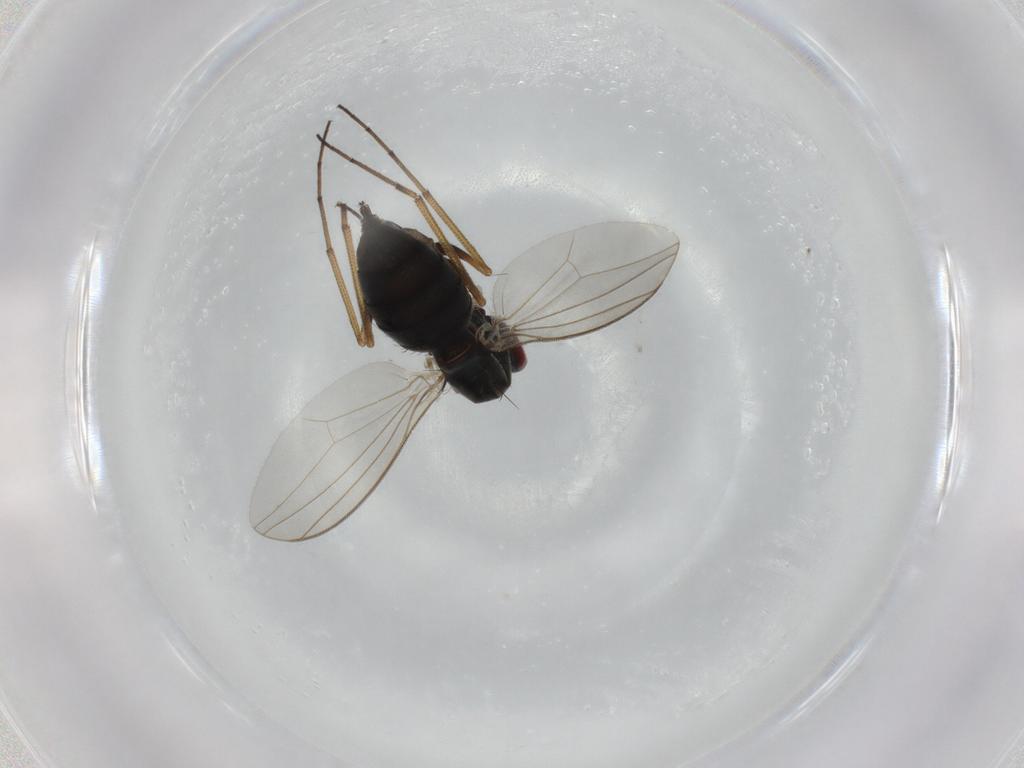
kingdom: Animalia
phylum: Arthropoda
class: Insecta
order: Diptera
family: Dolichopodidae
